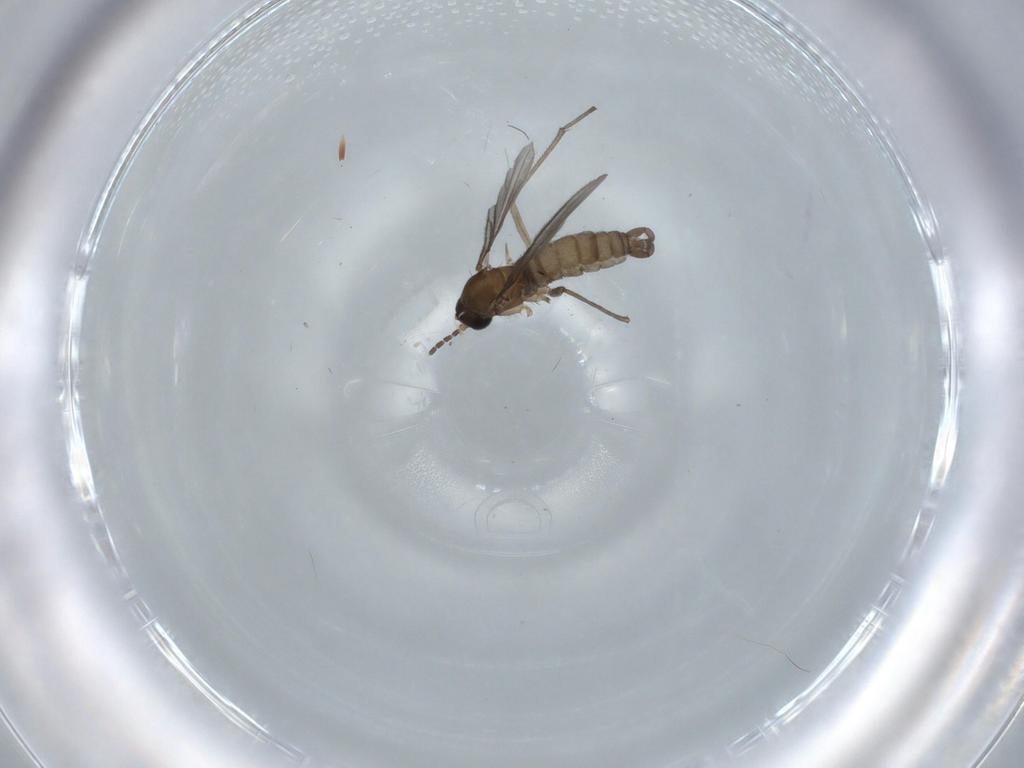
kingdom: Animalia
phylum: Arthropoda
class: Insecta
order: Diptera
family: Sciaridae
